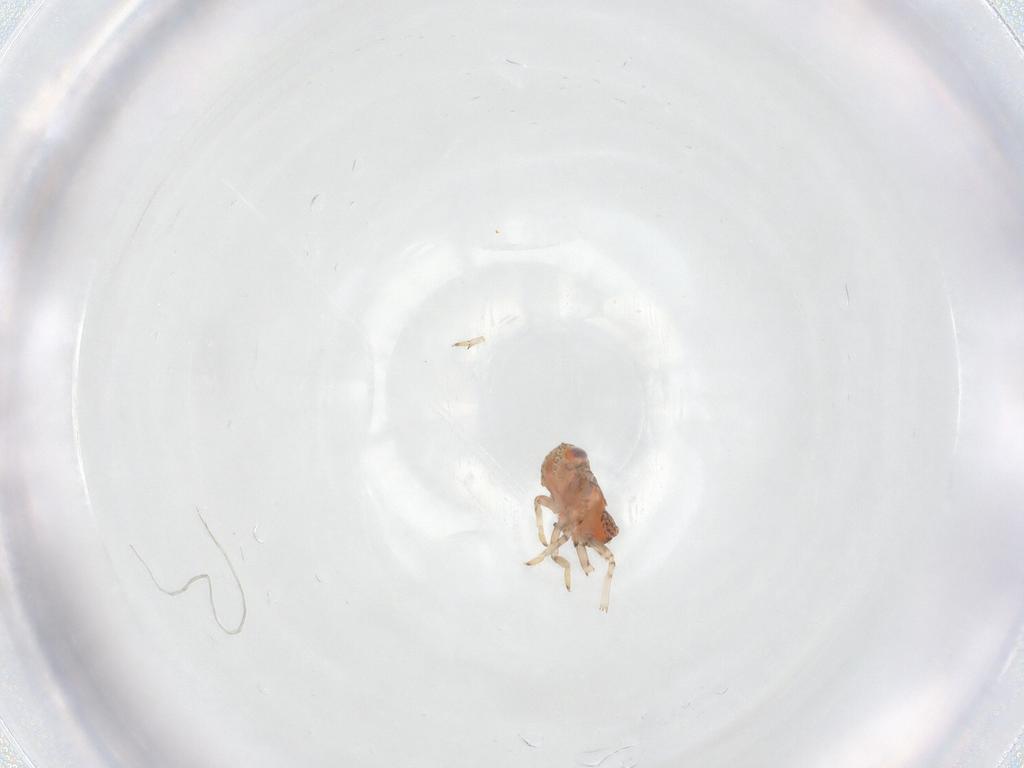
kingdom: Animalia
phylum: Arthropoda
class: Insecta
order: Hemiptera
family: Issidae
